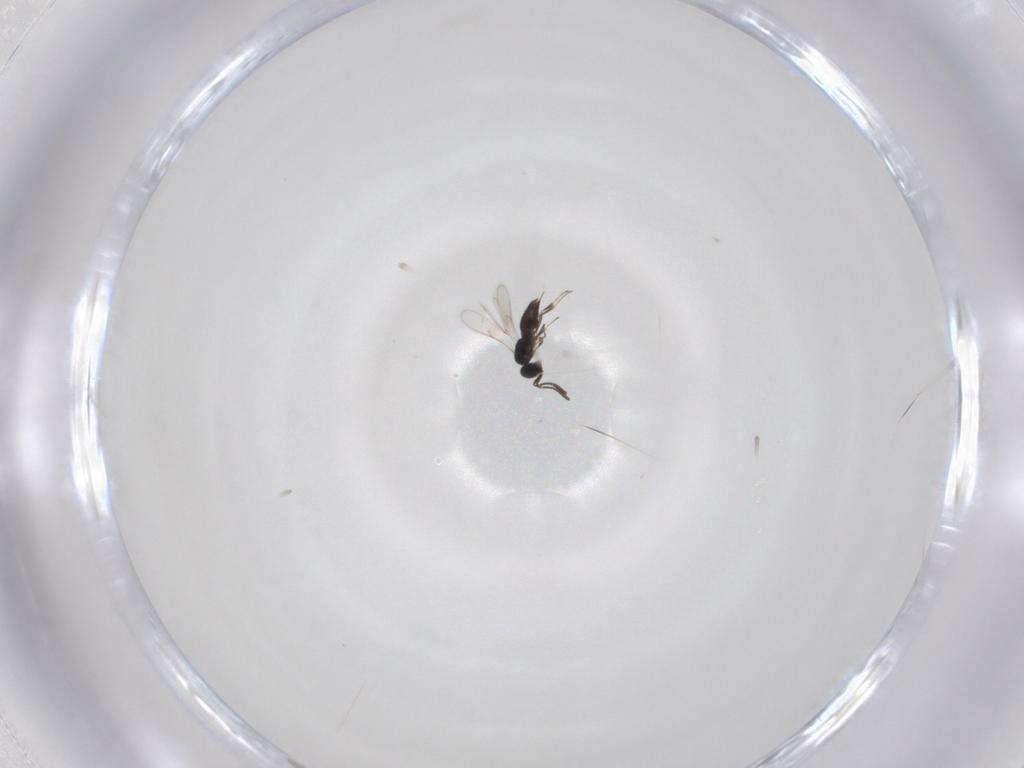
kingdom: Animalia
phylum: Arthropoda
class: Insecta
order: Hymenoptera
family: Scelionidae
